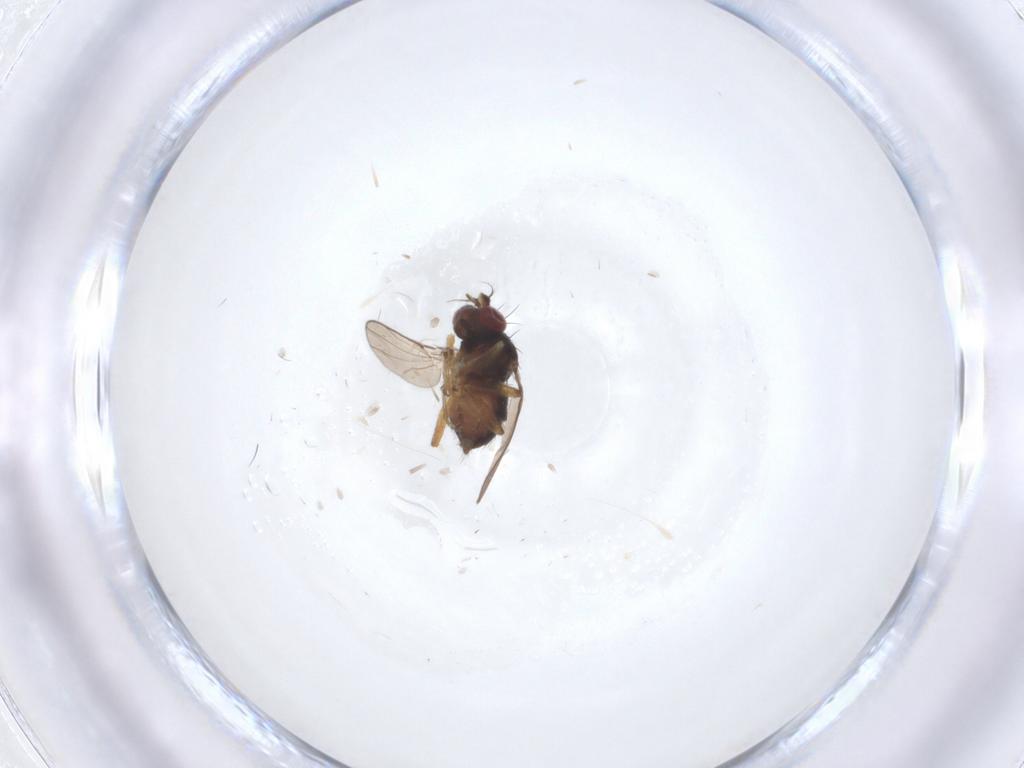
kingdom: Animalia
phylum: Arthropoda
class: Insecta
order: Diptera
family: Ephydridae
